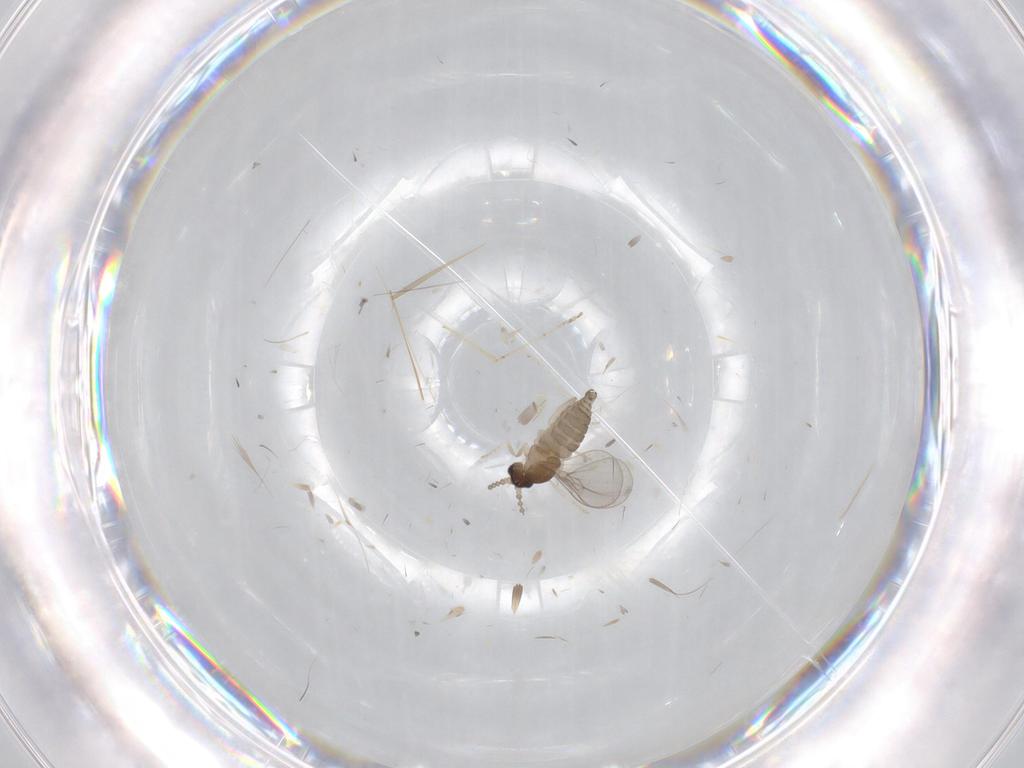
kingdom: Animalia
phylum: Arthropoda
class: Insecta
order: Diptera
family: Cecidomyiidae
